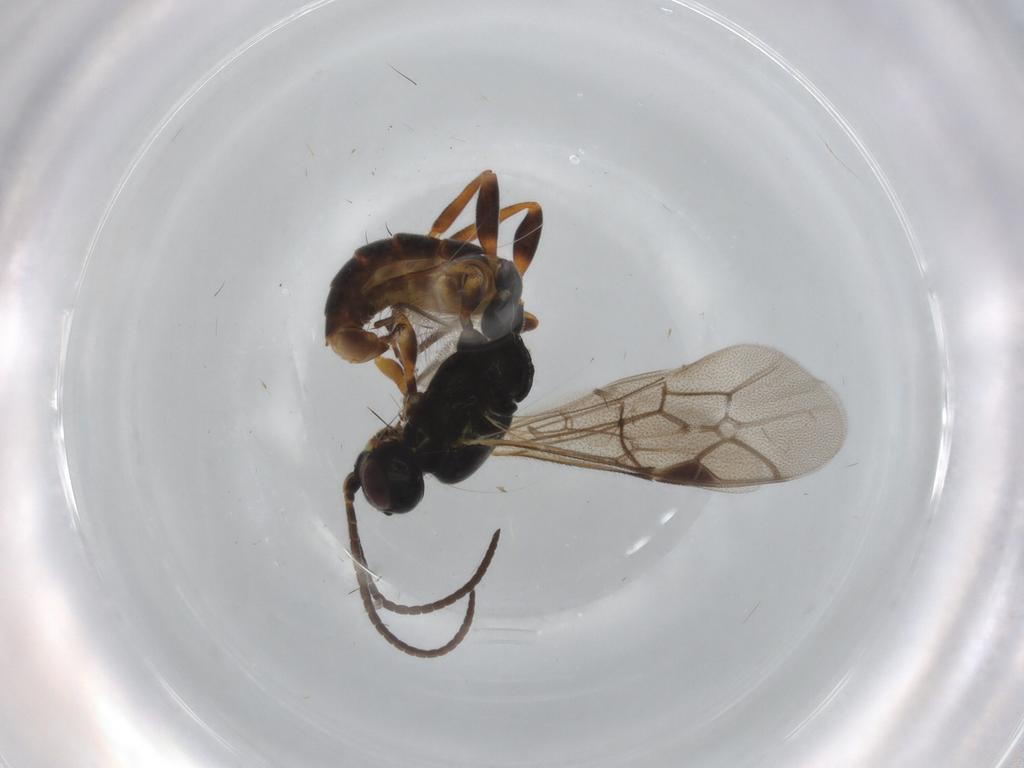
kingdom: Animalia
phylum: Arthropoda
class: Insecta
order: Hymenoptera
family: Ichneumonidae
